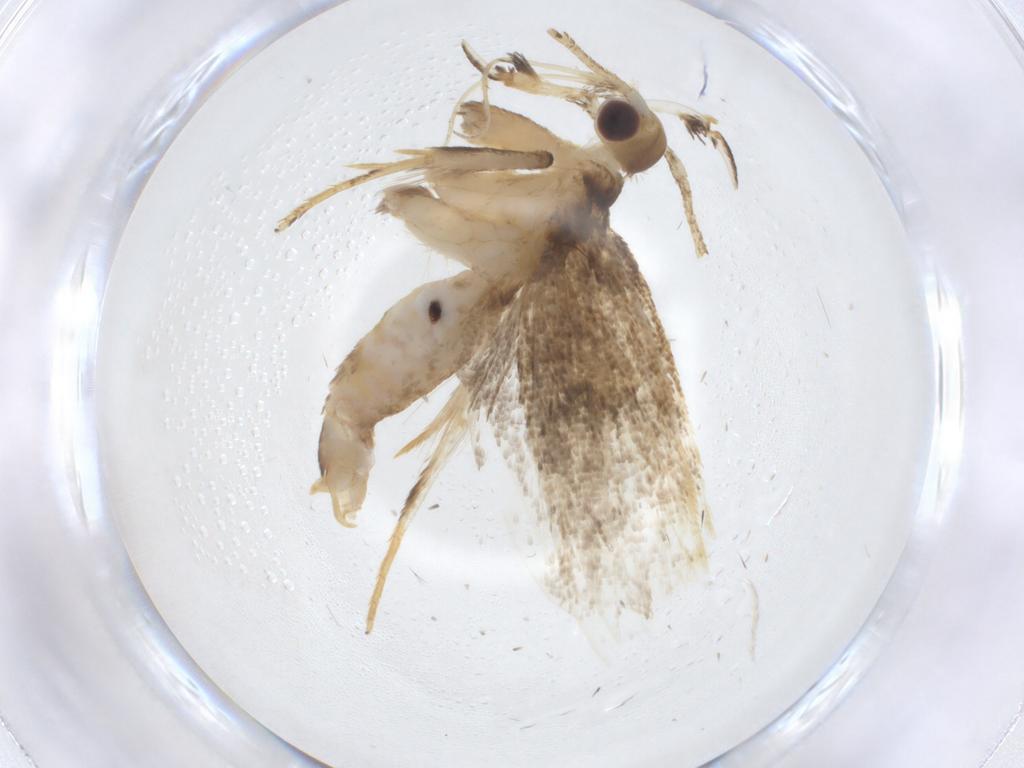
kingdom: Animalia
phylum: Arthropoda
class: Insecta
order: Lepidoptera
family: Lecithoceridae
